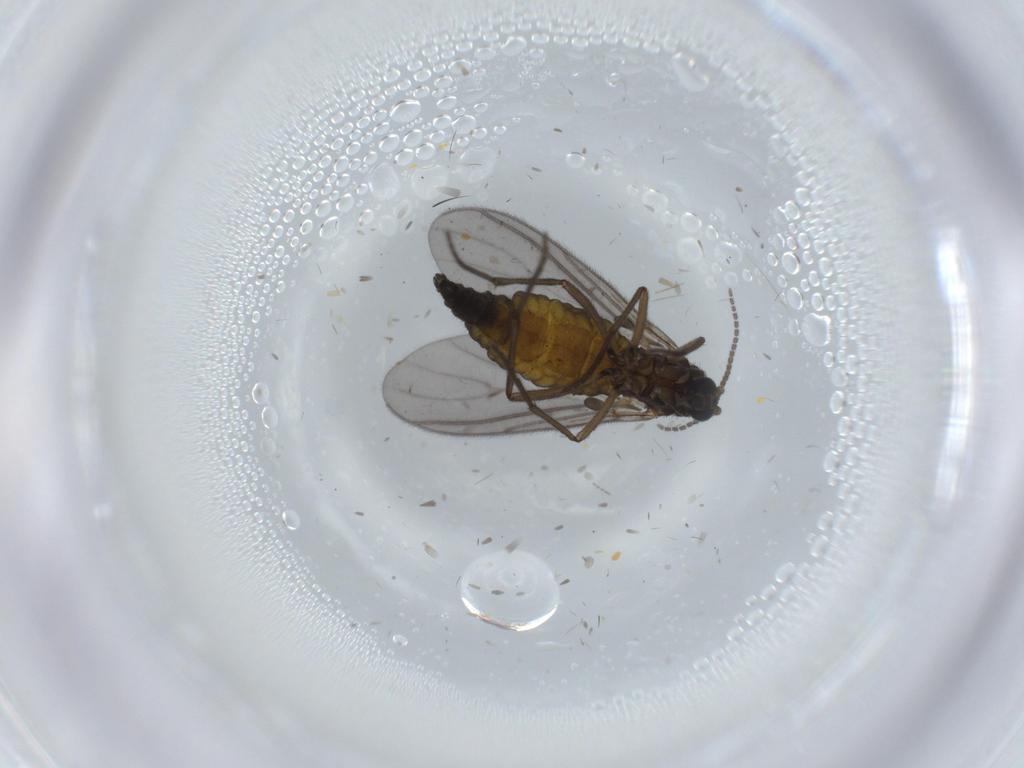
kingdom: Animalia
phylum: Arthropoda
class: Insecta
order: Diptera
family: Sciaridae
